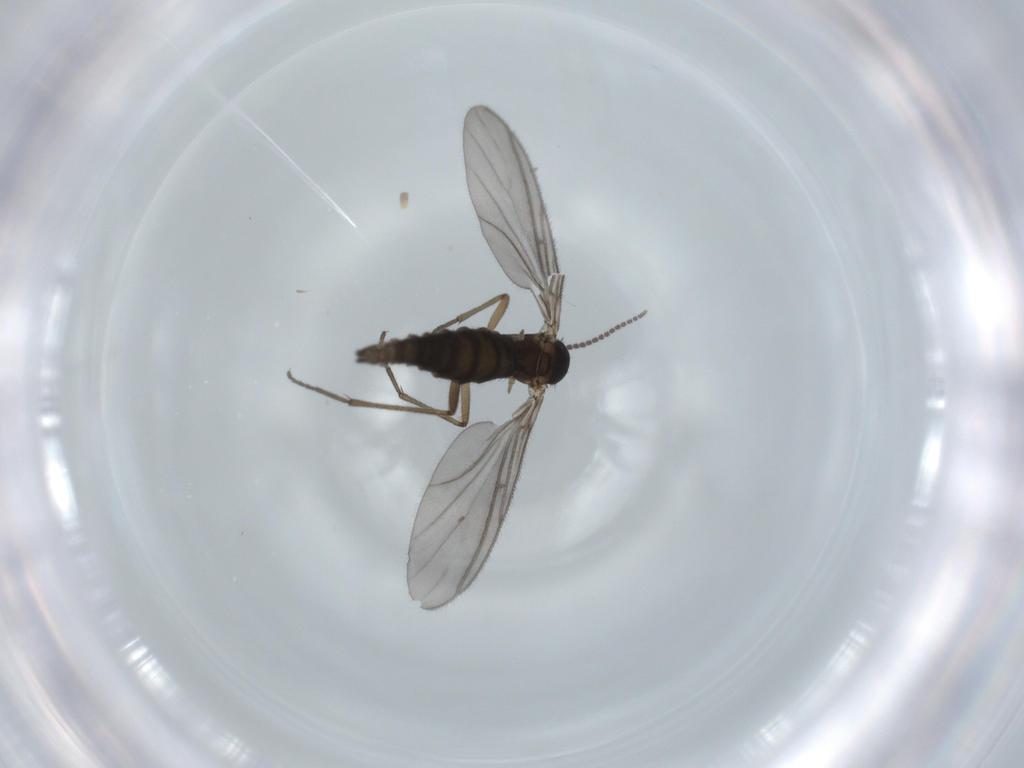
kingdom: Animalia
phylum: Arthropoda
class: Insecta
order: Diptera
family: Sciaridae
